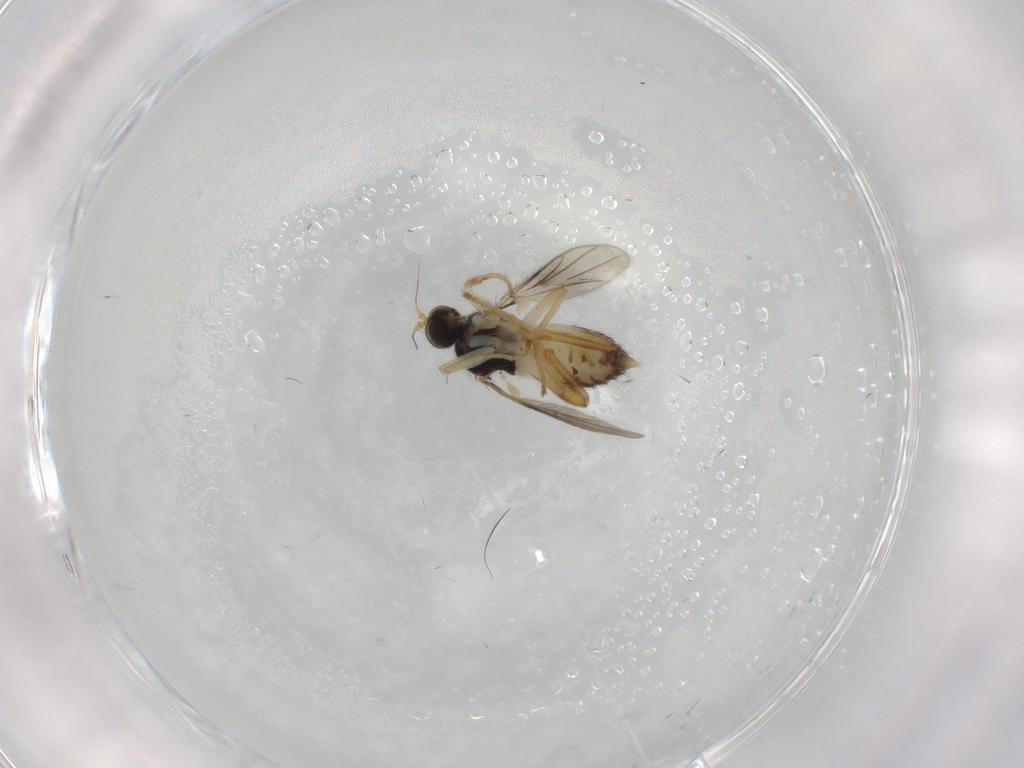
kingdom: Animalia
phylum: Arthropoda
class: Insecta
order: Diptera
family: Hybotidae
